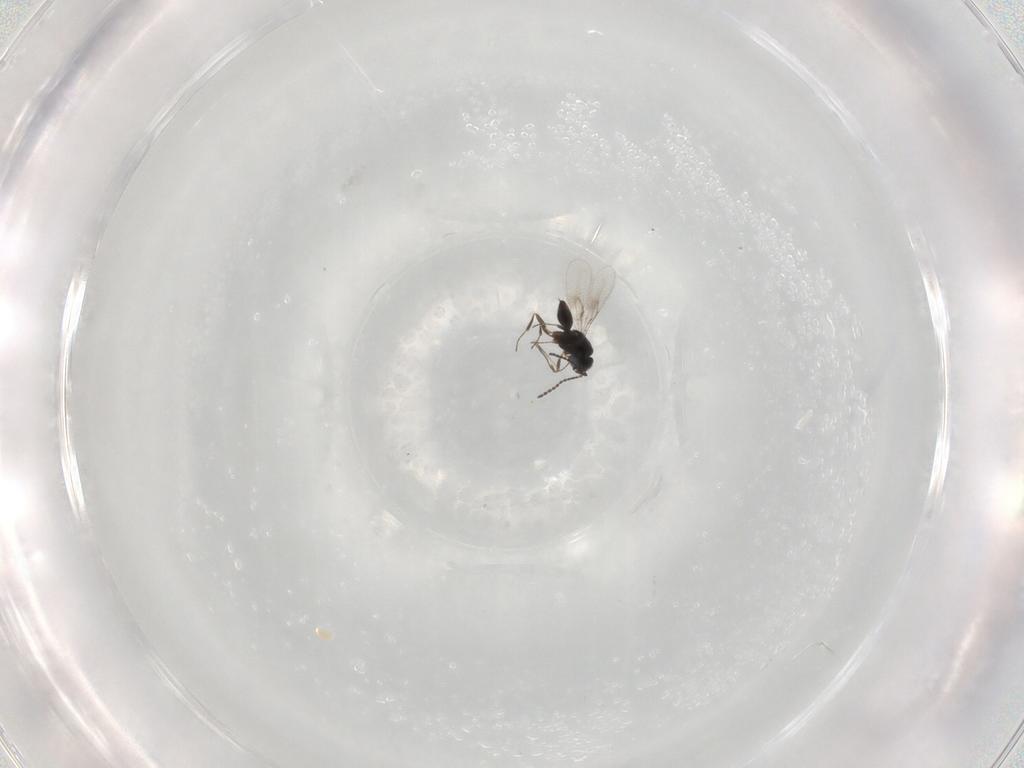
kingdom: Animalia
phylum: Arthropoda
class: Insecta
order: Hymenoptera
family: Scelionidae
